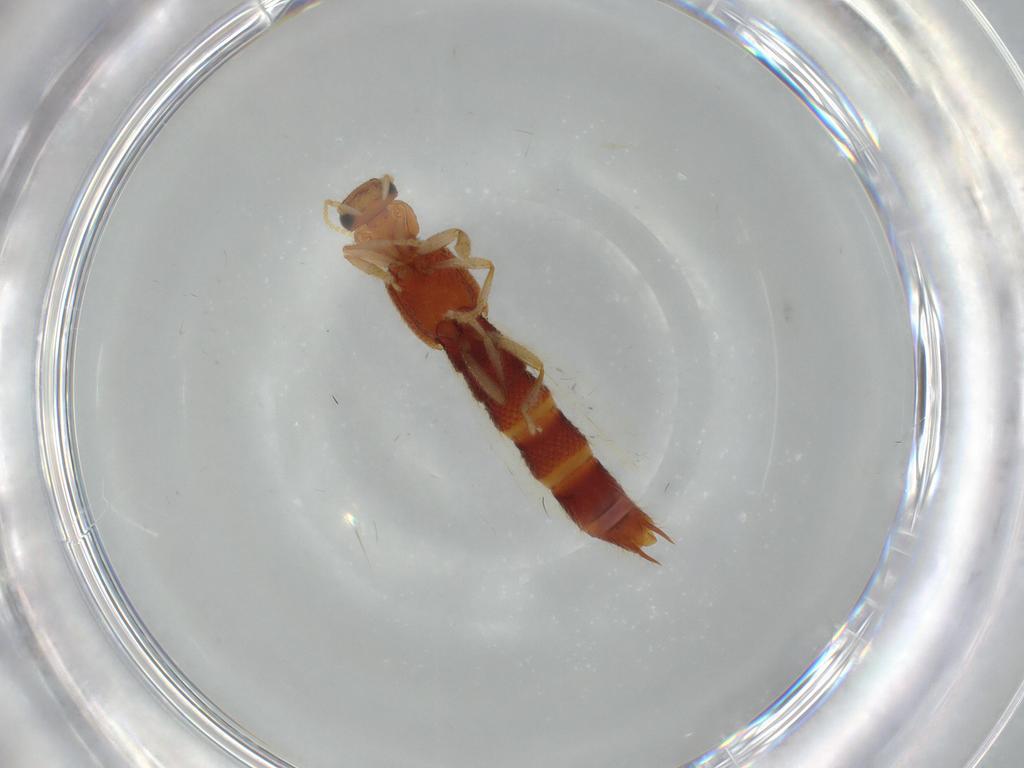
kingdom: Animalia
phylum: Arthropoda
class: Insecta
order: Coleoptera
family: Staphylinidae
